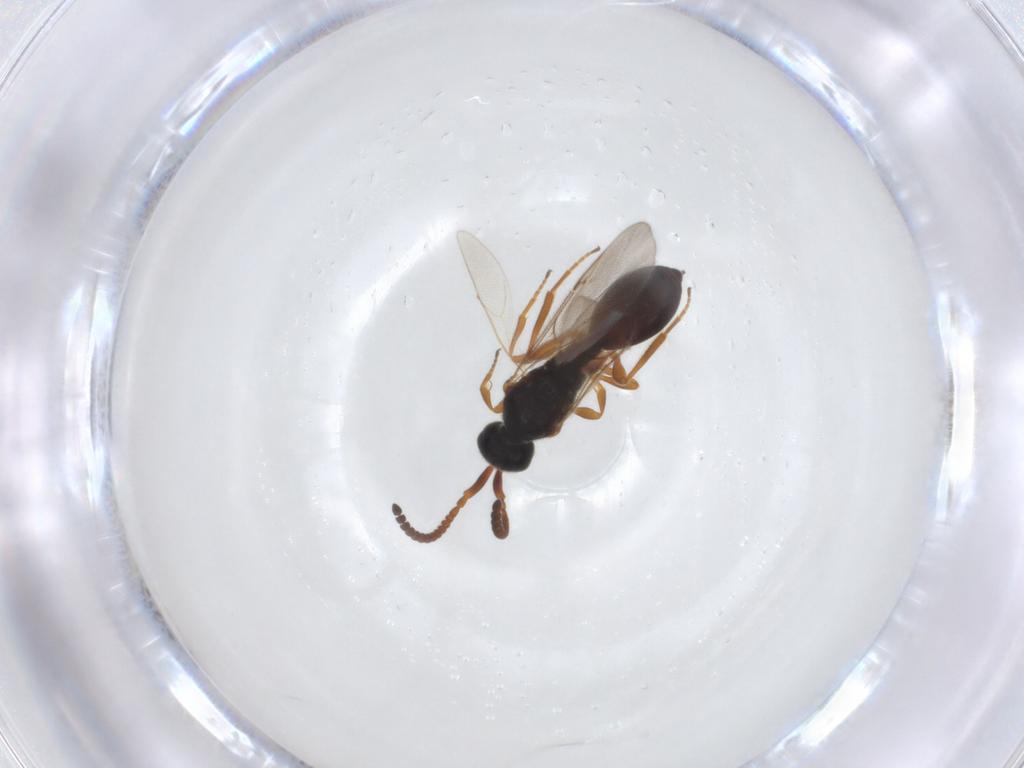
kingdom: Animalia
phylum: Arthropoda
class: Insecta
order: Hymenoptera
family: Diapriidae
